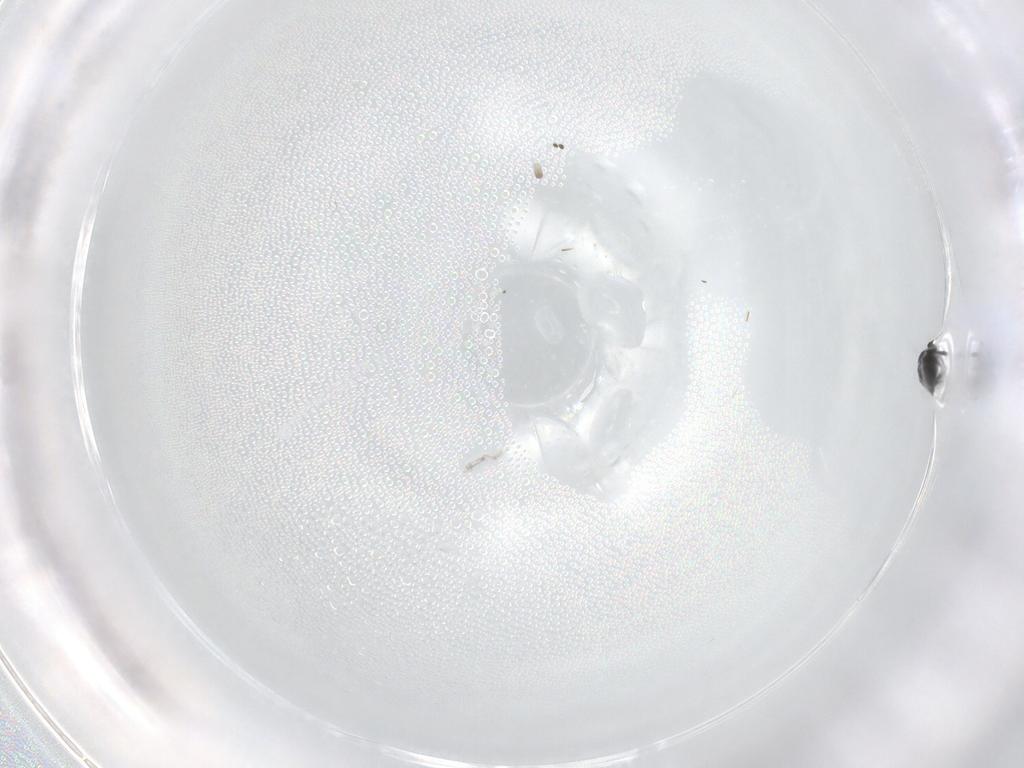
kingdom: Animalia
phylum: Arthropoda
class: Insecta
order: Hymenoptera
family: Platygastridae
